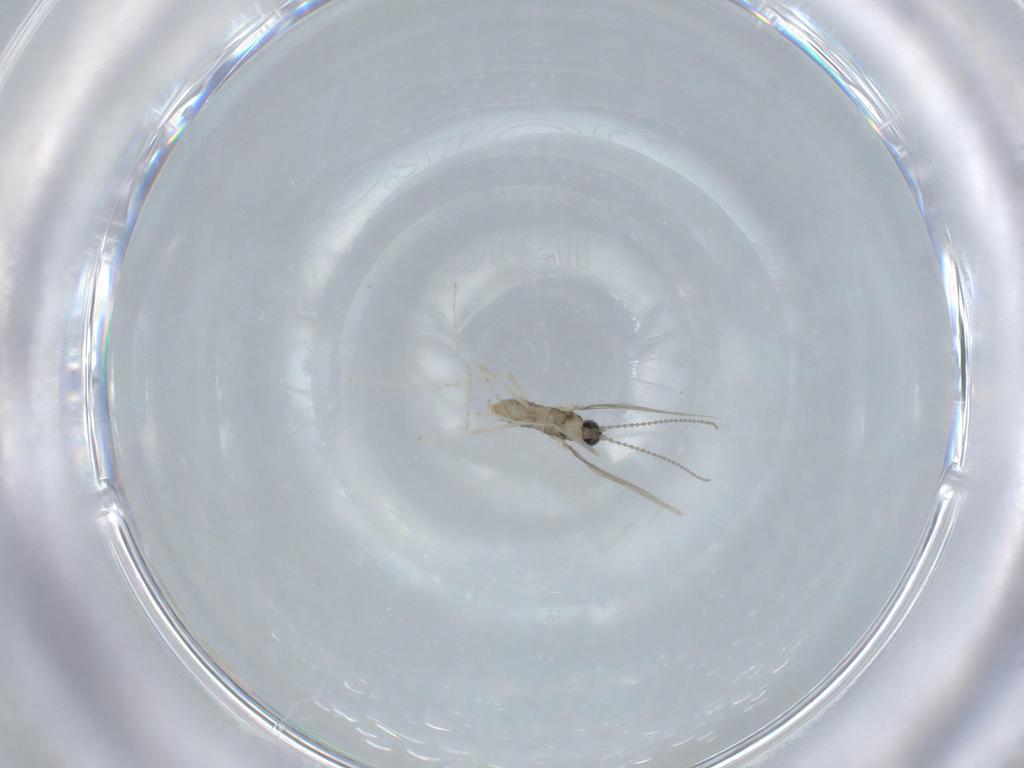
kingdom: Animalia
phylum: Arthropoda
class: Insecta
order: Diptera
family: Cecidomyiidae
